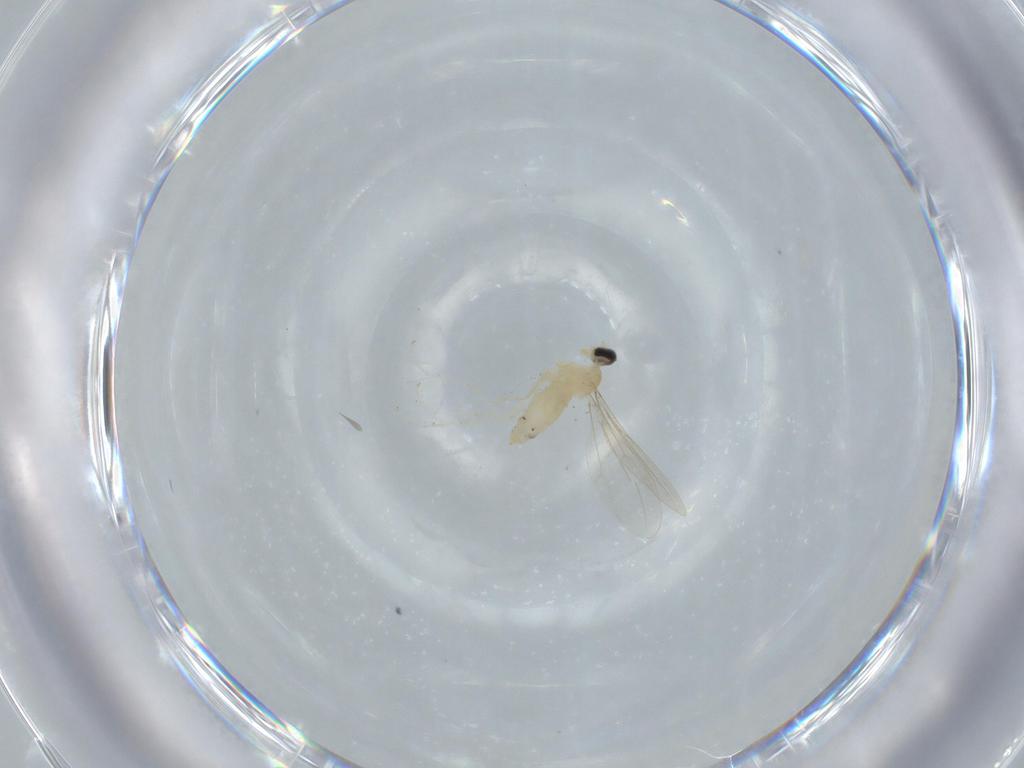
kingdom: Animalia
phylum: Arthropoda
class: Insecta
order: Diptera
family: Cecidomyiidae
